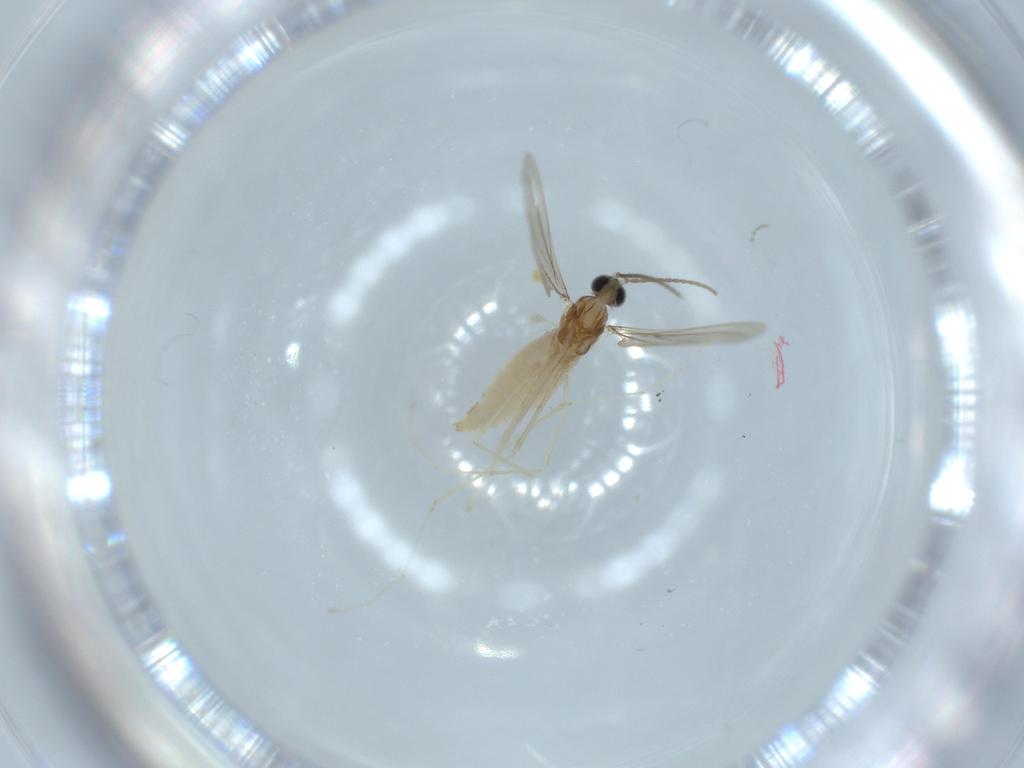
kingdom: Animalia
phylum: Arthropoda
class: Insecta
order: Diptera
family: Cecidomyiidae
